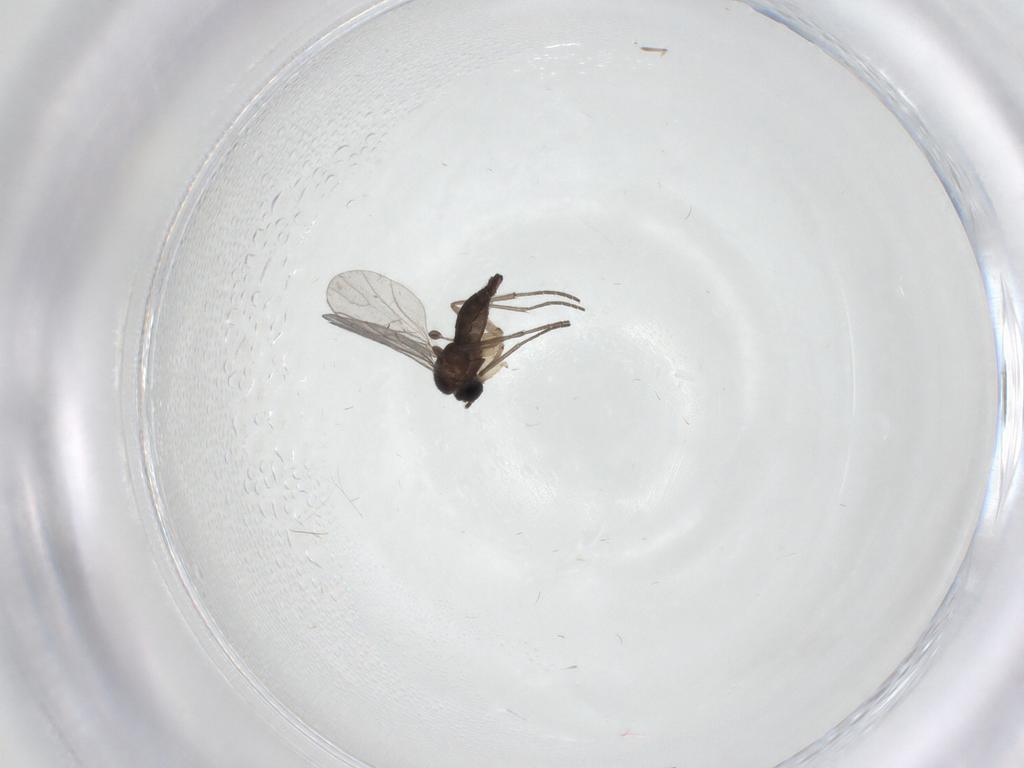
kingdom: Animalia
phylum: Arthropoda
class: Insecta
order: Diptera
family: Sciaridae
